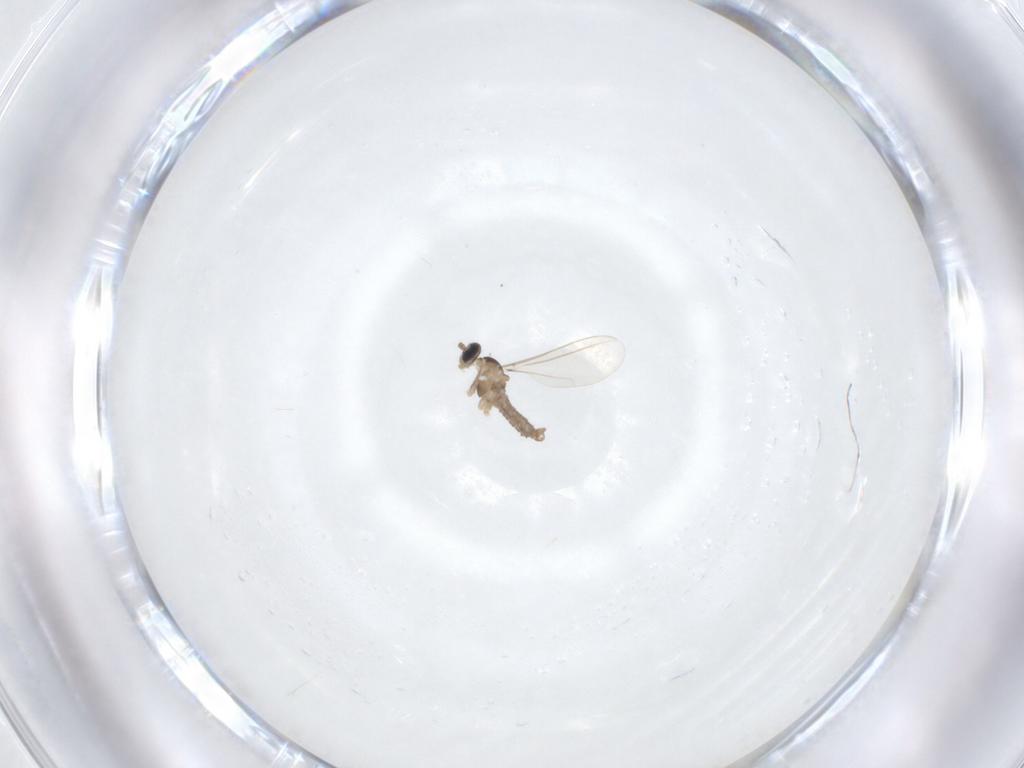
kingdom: Animalia
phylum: Arthropoda
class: Insecta
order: Diptera
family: Cecidomyiidae
